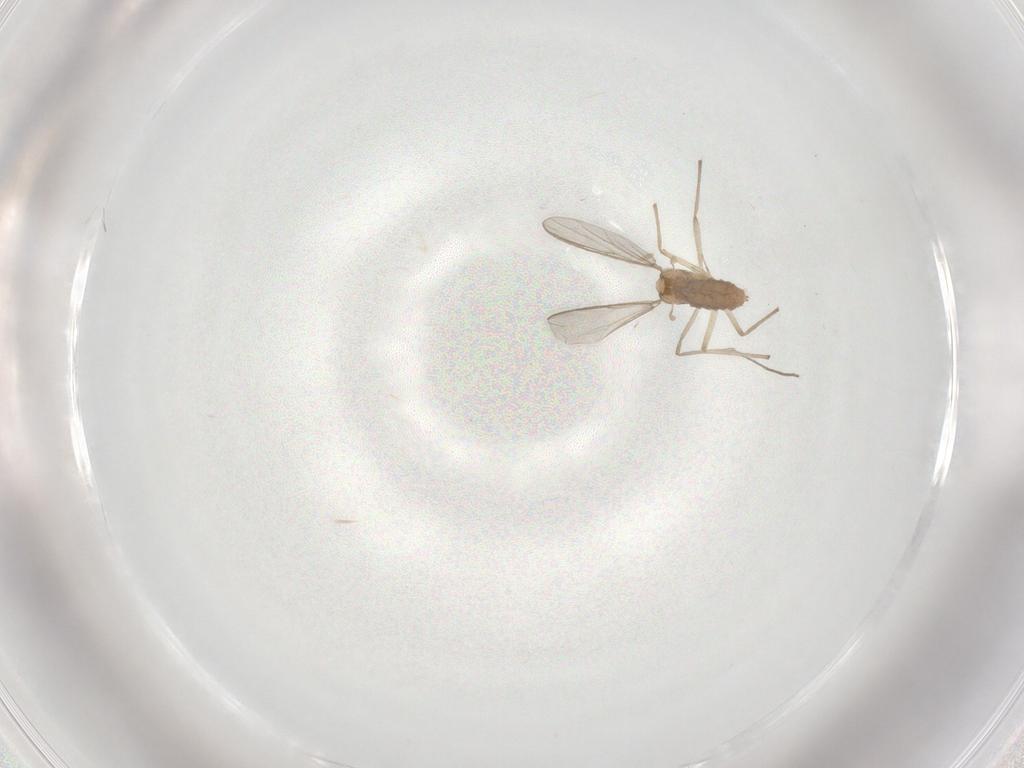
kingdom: Animalia
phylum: Arthropoda
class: Insecta
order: Diptera
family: Chironomidae
